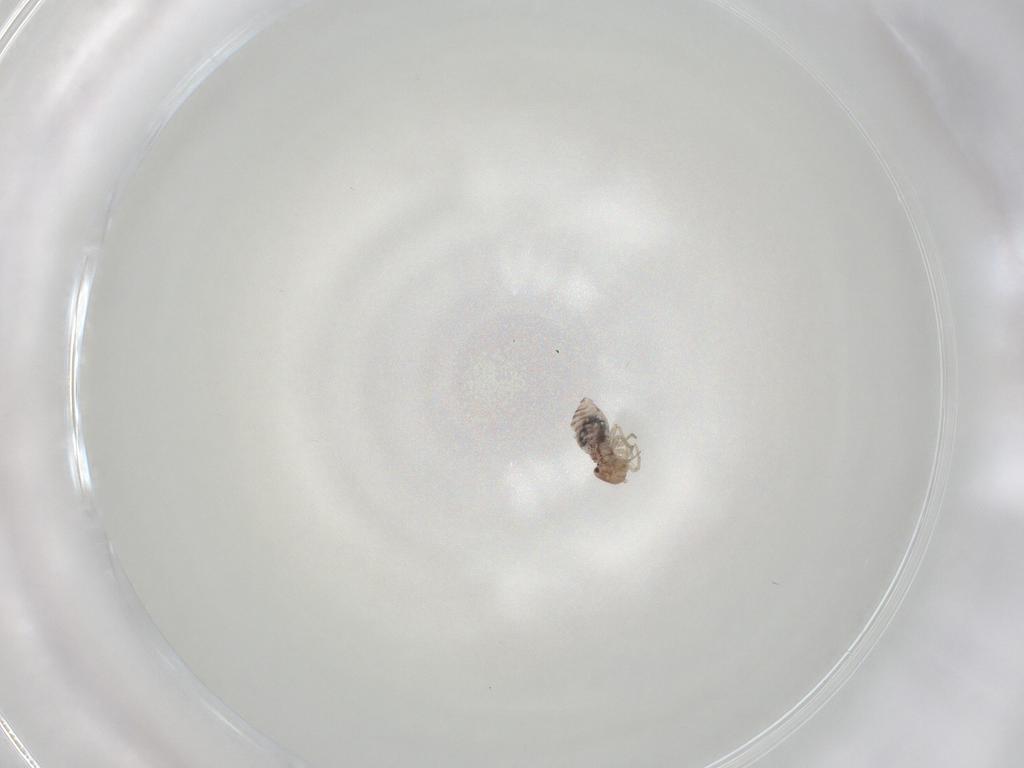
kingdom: Animalia
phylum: Arthropoda
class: Insecta
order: Psocodea
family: Lachesillidae
